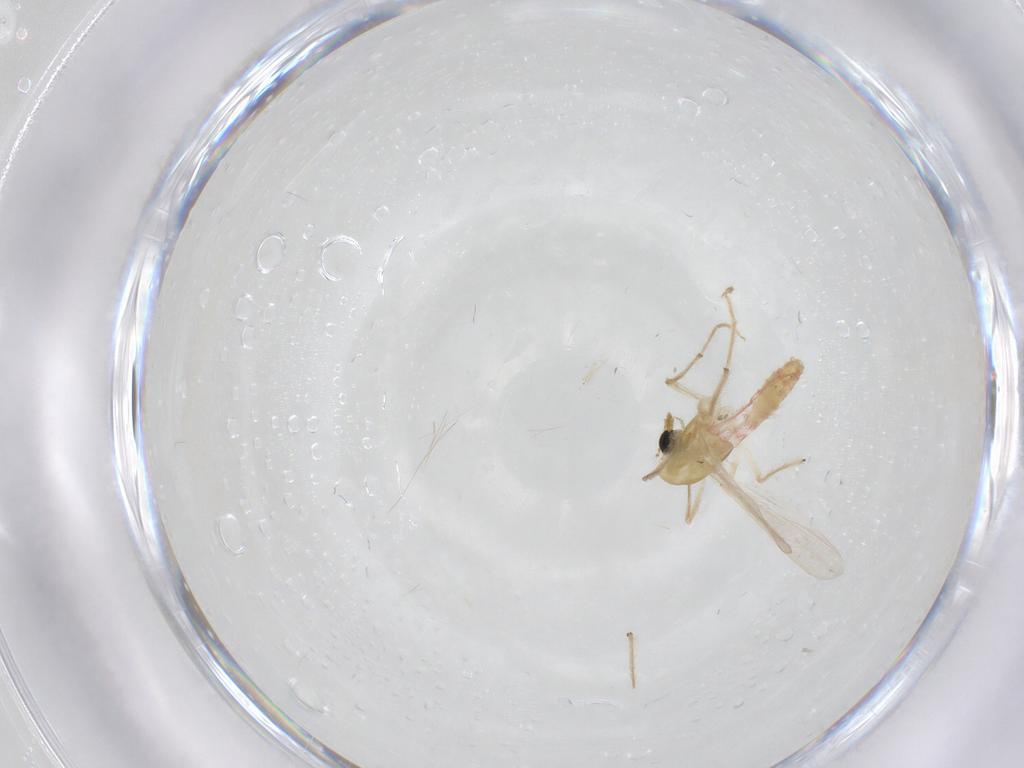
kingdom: Animalia
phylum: Arthropoda
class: Insecta
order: Diptera
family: Chironomidae
